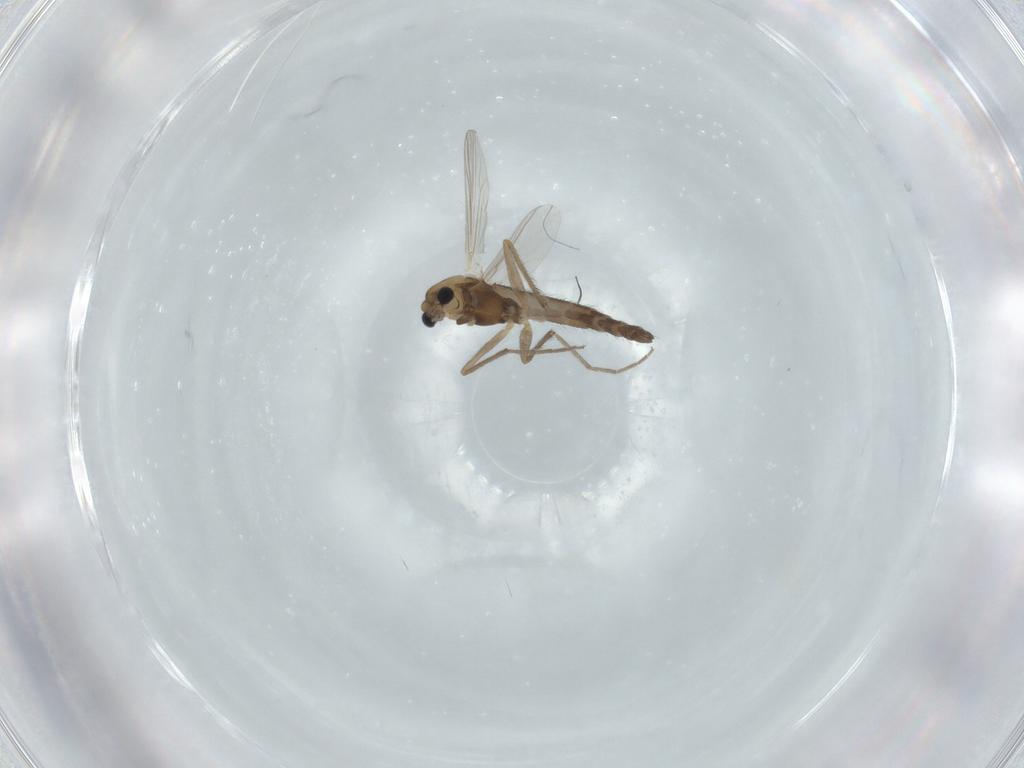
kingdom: Animalia
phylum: Arthropoda
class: Insecta
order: Diptera
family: Chironomidae
